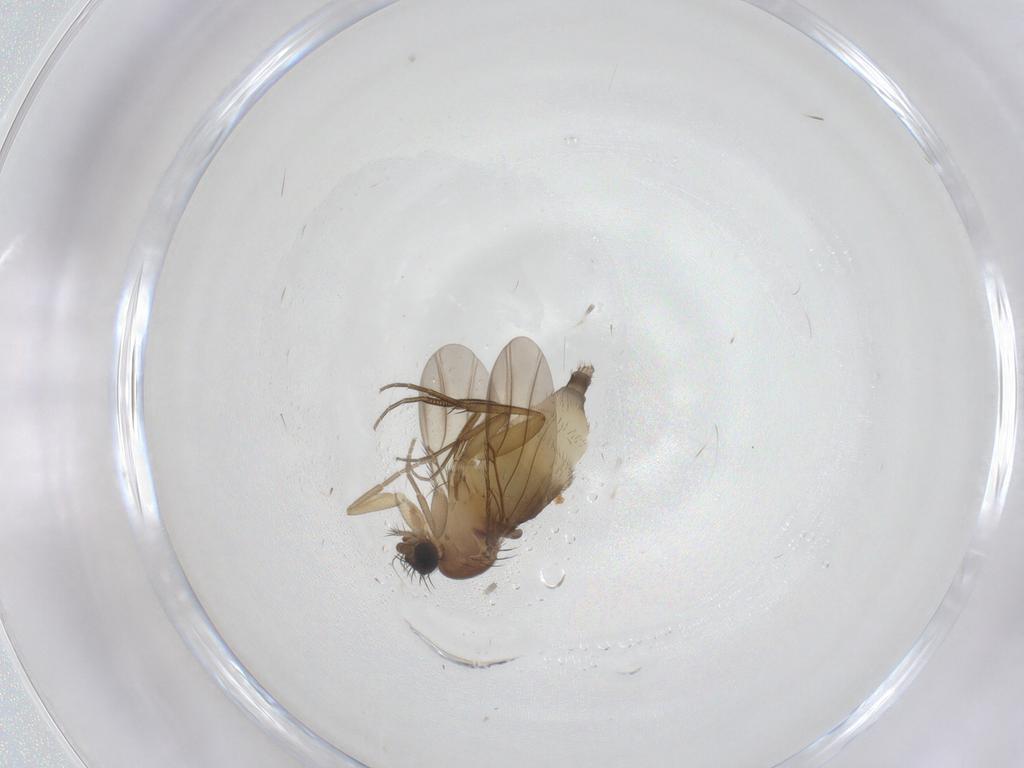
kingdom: Animalia
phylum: Arthropoda
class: Insecta
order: Diptera
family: Phoridae
